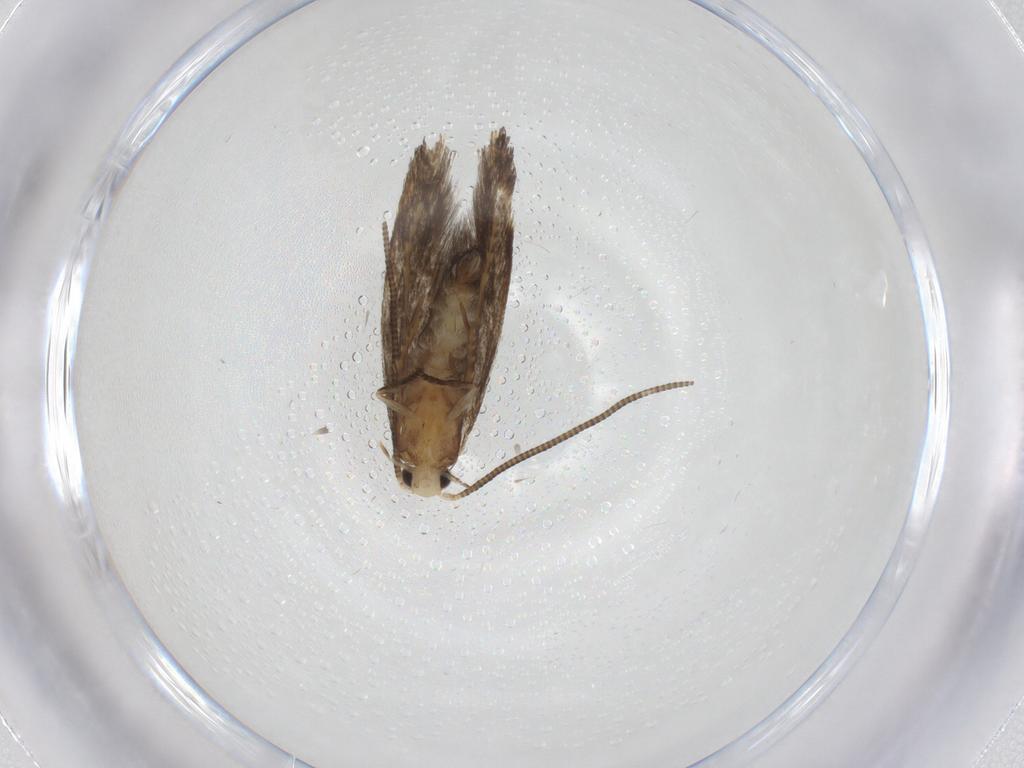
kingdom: Animalia
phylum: Arthropoda
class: Insecta
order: Lepidoptera
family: Tineidae
